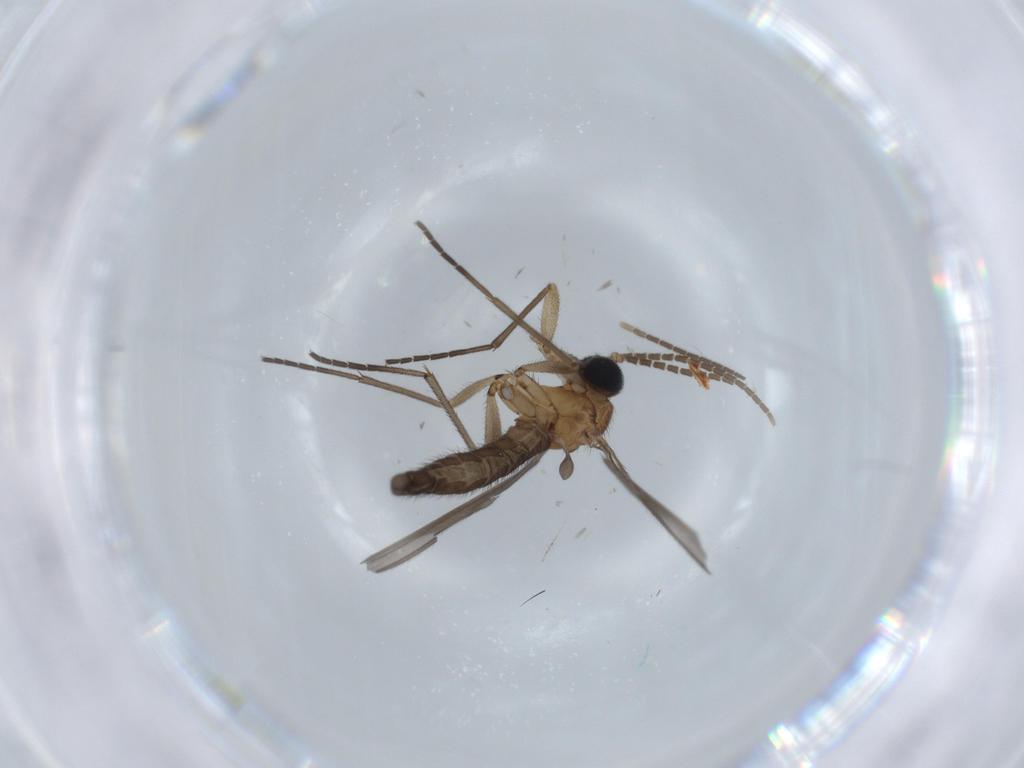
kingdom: Animalia
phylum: Arthropoda
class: Insecta
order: Diptera
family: Sciaridae
